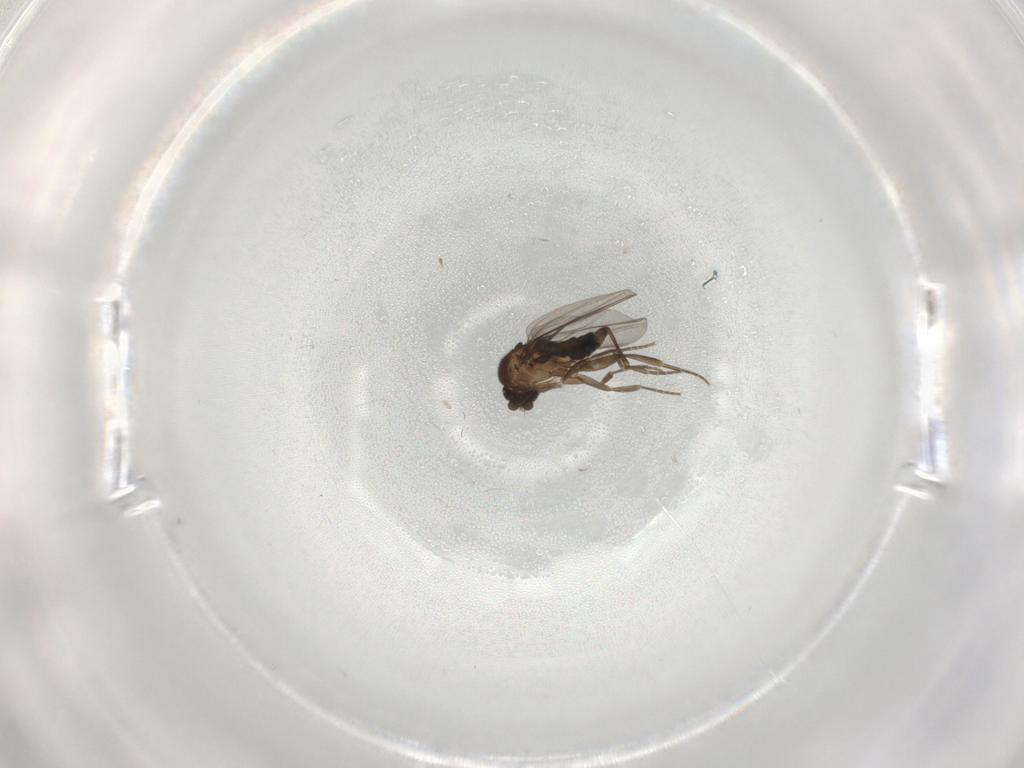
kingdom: Animalia
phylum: Arthropoda
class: Insecta
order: Diptera
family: Phoridae
